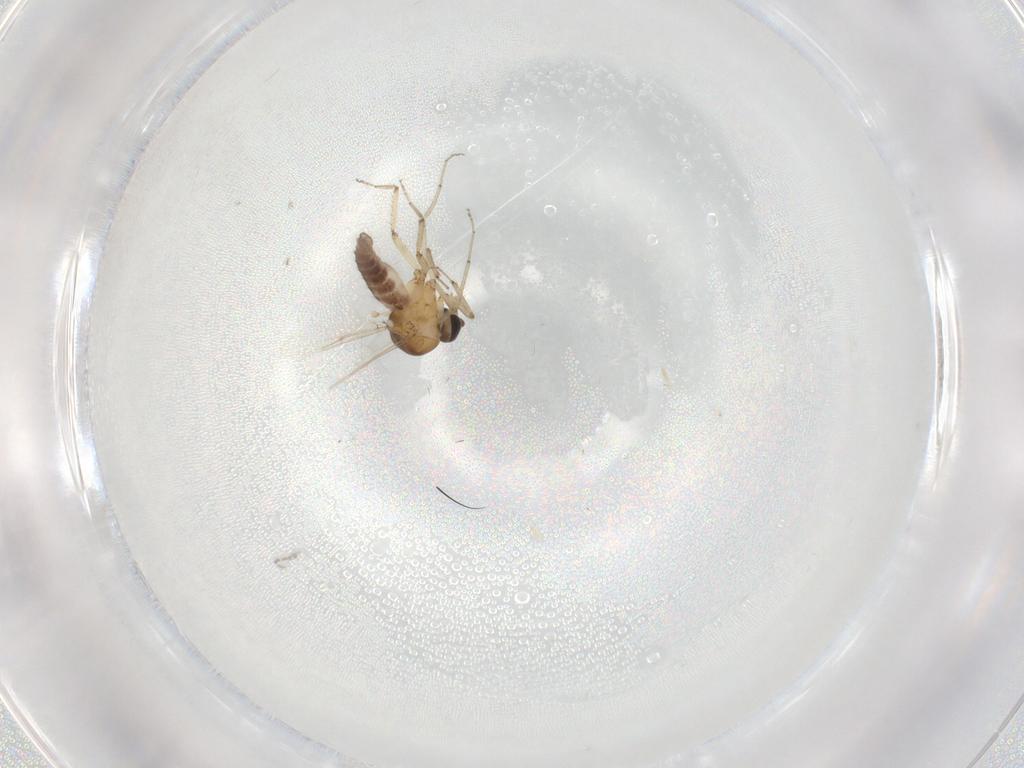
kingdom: Animalia
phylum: Arthropoda
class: Insecta
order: Diptera
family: Ceratopogonidae
